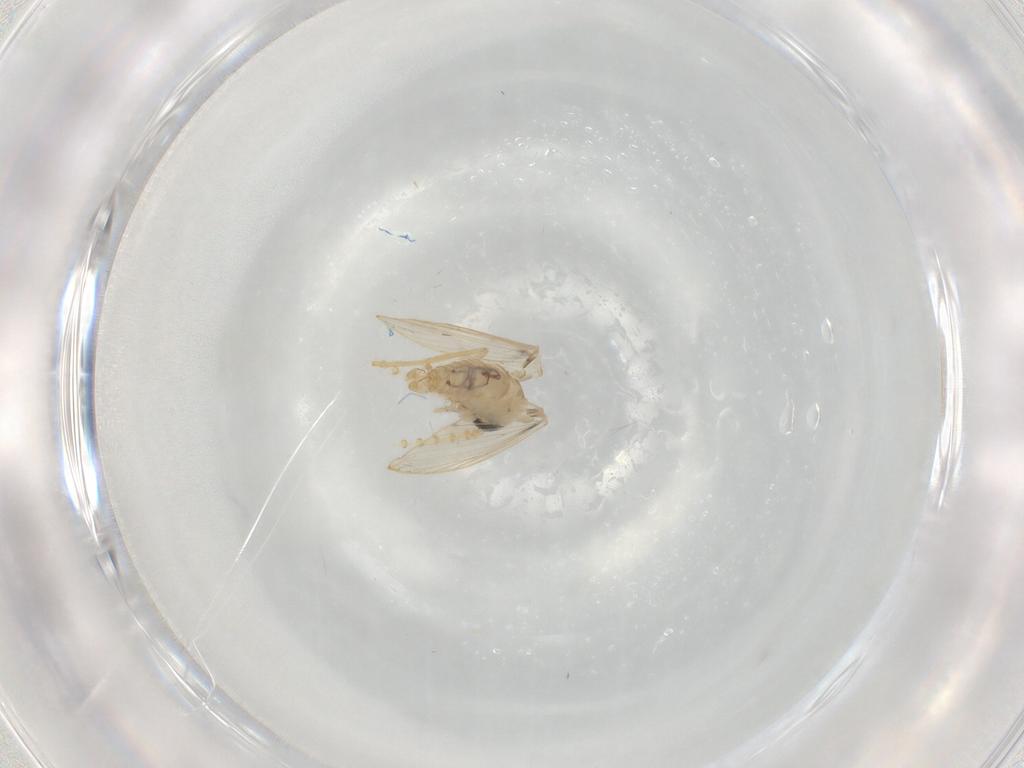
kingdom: Animalia
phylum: Arthropoda
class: Insecta
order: Diptera
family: Psychodidae
